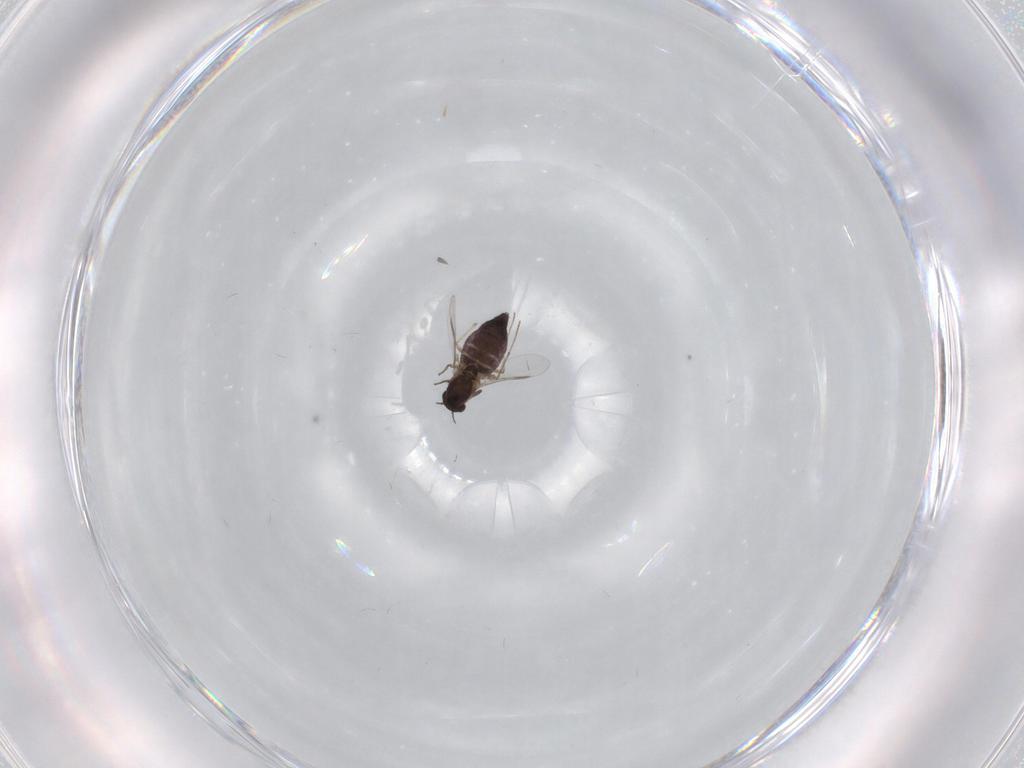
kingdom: Animalia
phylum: Arthropoda
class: Insecta
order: Diptera
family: Chironomidae
